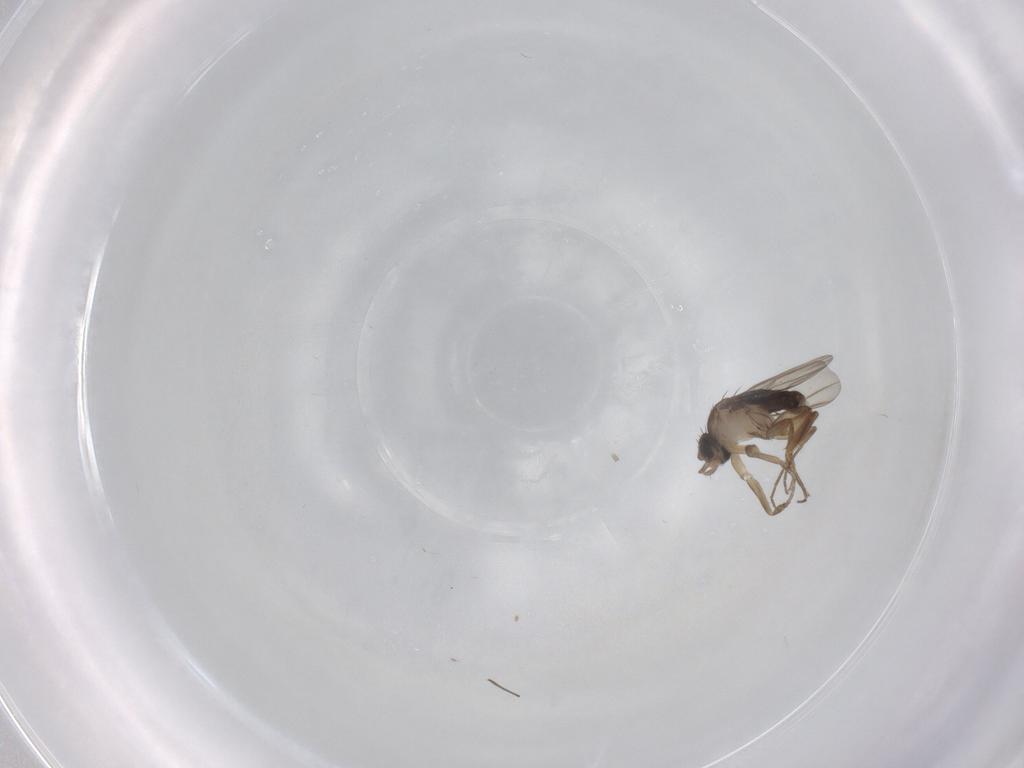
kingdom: Animalia
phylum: Arthropoda
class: Insecta
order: Diptera
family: Phoridae
